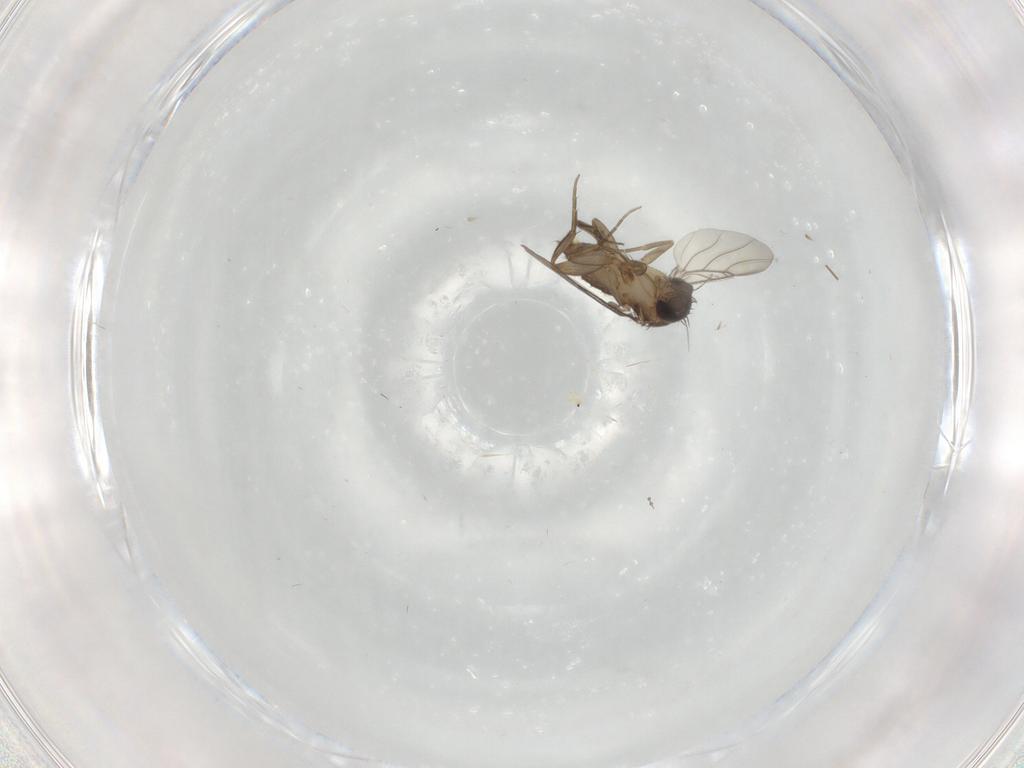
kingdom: Animalia
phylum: Arthropoda
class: Insecta
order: Diptera
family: Phoridae
